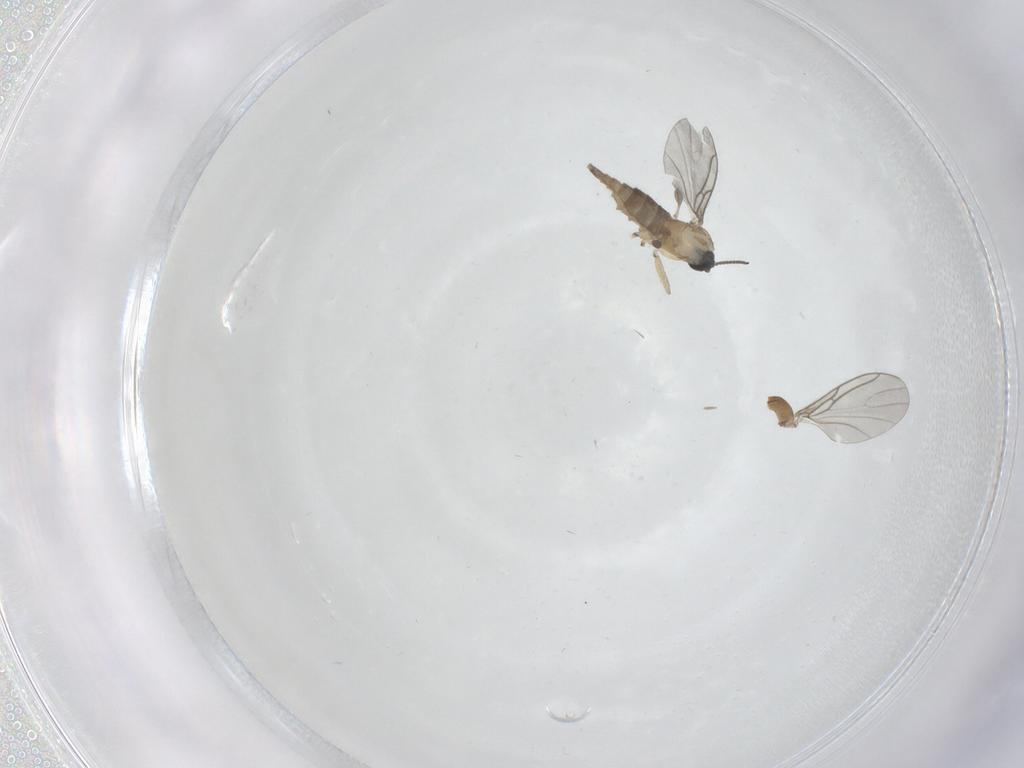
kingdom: Animalia
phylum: Arthropoda
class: Insecta
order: Diptera
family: Sciaridae
